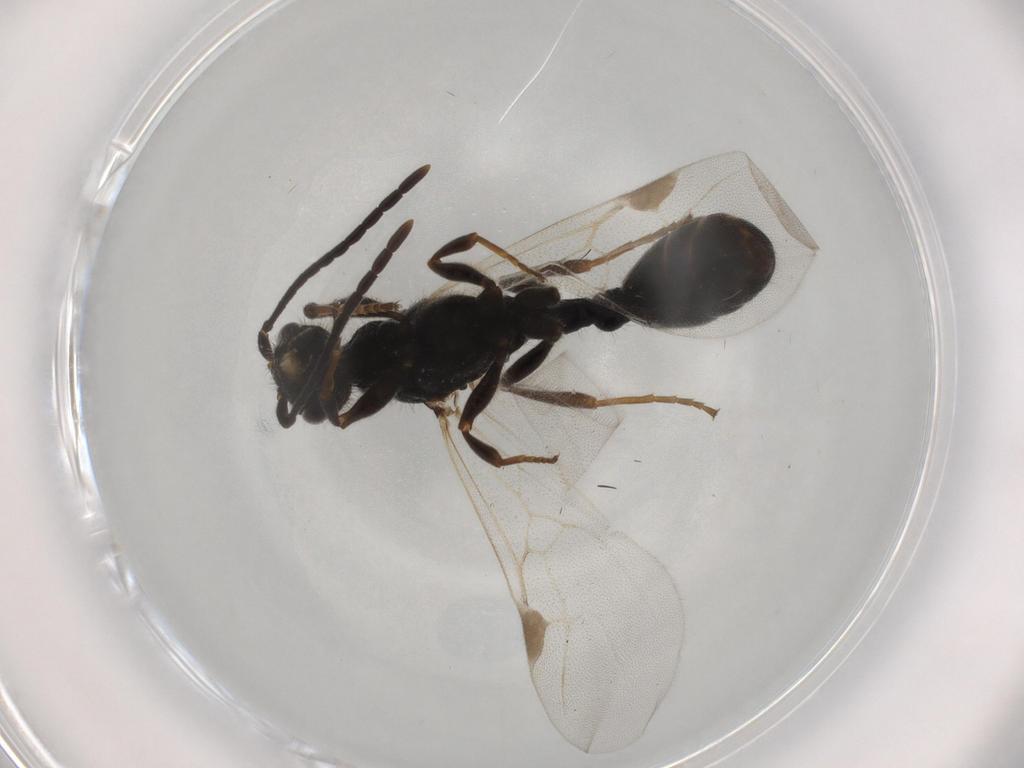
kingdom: Animalia
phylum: Arthropoda
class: Insecta
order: Hymenoptera
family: Formicidae
